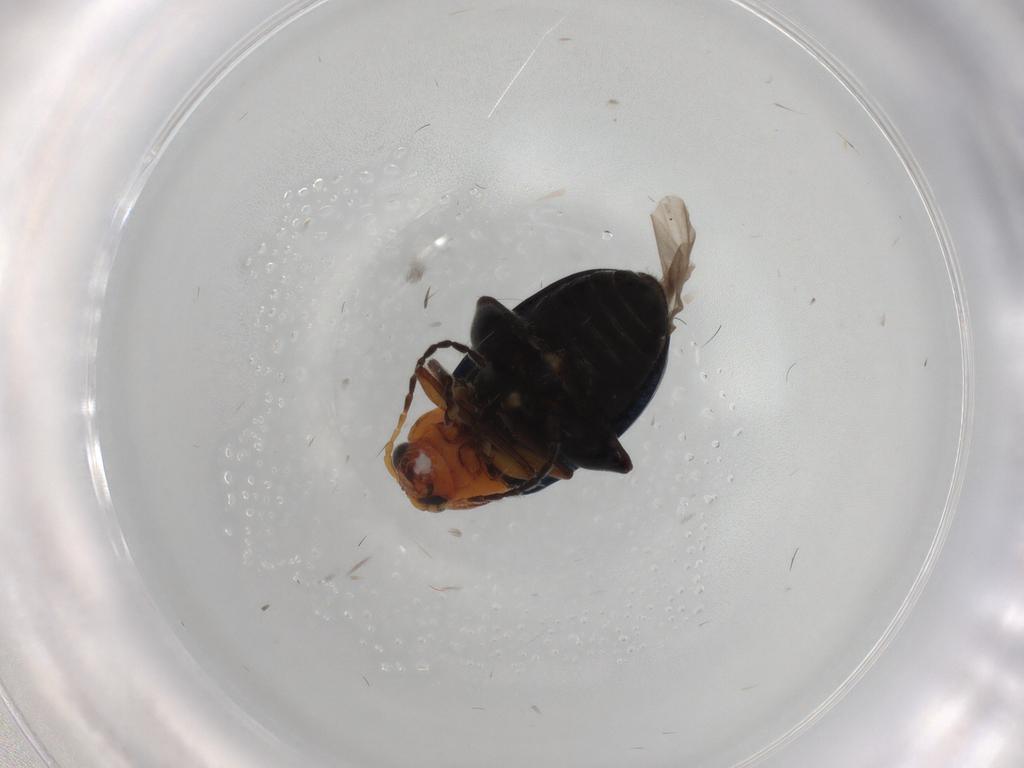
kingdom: Animalia
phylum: Arthropoda
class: Insecta
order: Coleoptera
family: Chrysomelidae
